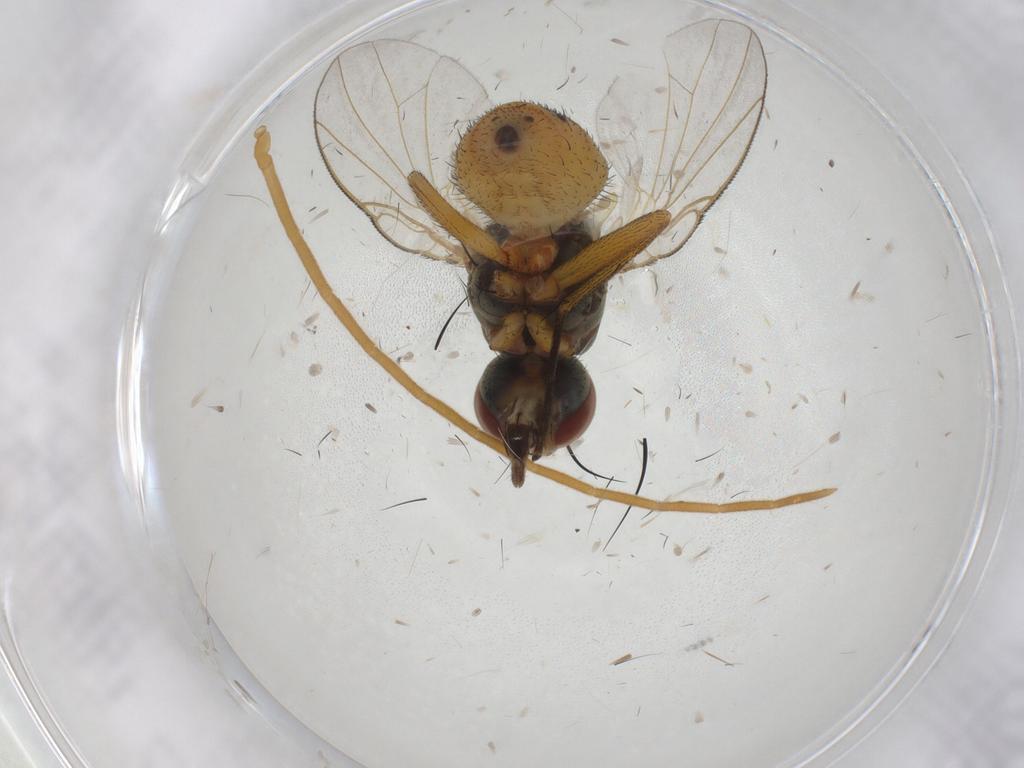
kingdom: Animalia
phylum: Arthropoda
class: Insecta
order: Diptera
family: Muscidae
